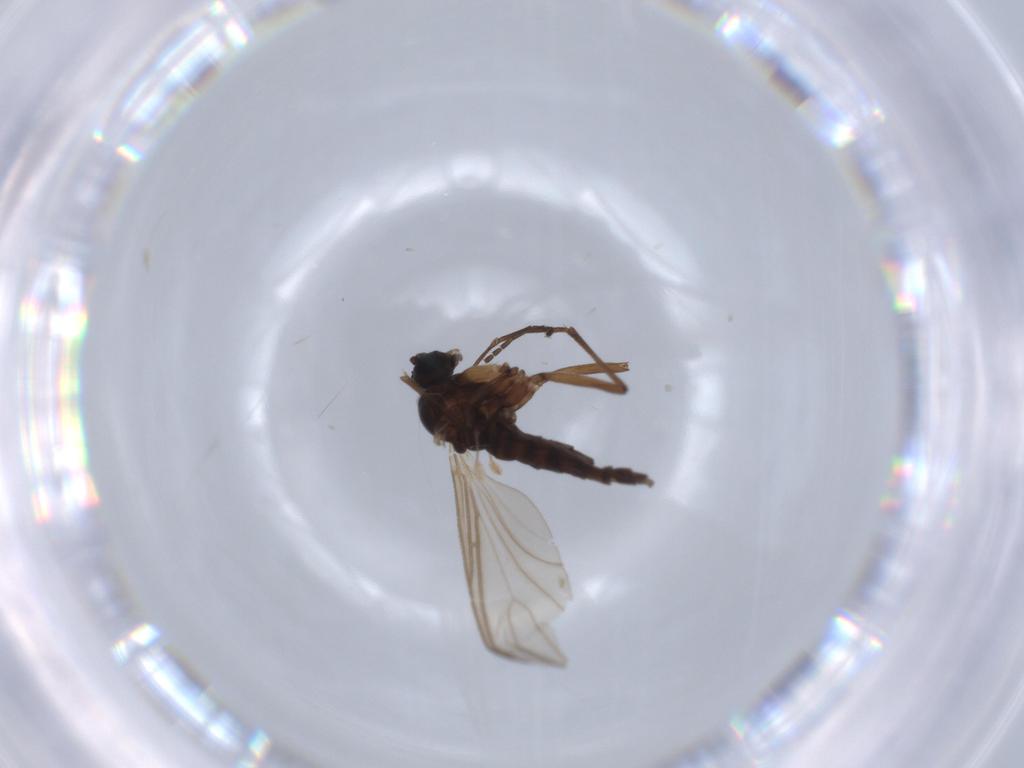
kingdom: Animalia
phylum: Arthropoda
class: Insecta
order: Diptera
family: Sciaridae
